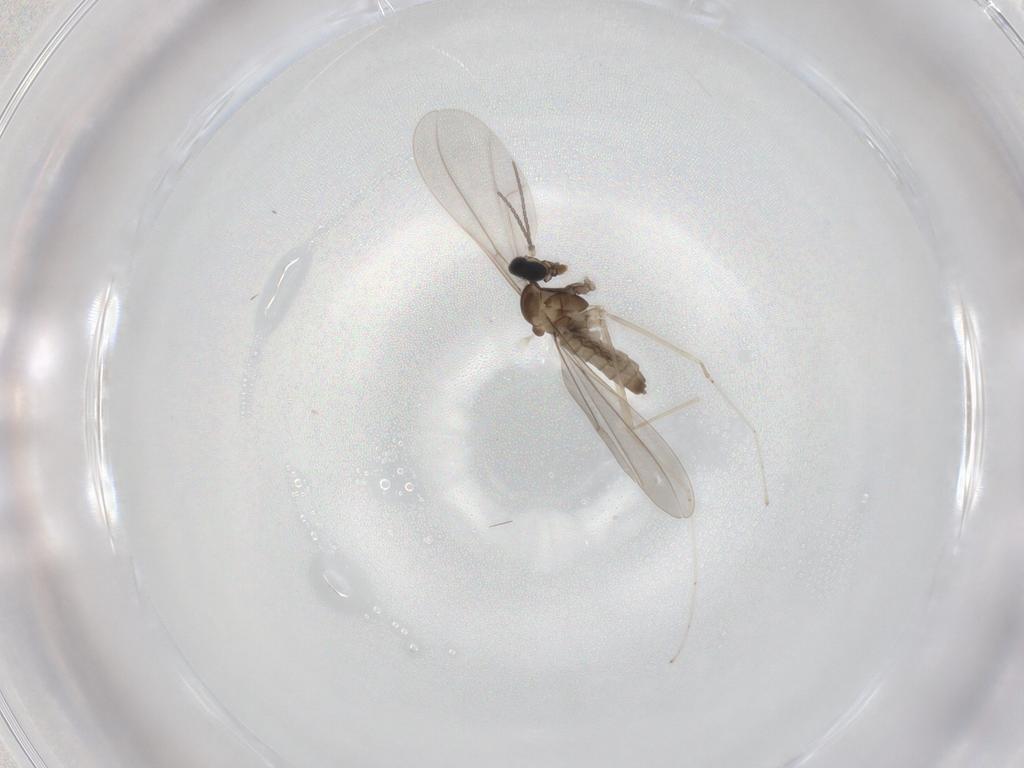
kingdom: Animalia
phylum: Arthropoda
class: Insecta
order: Diptera
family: Cecidomyiidae
